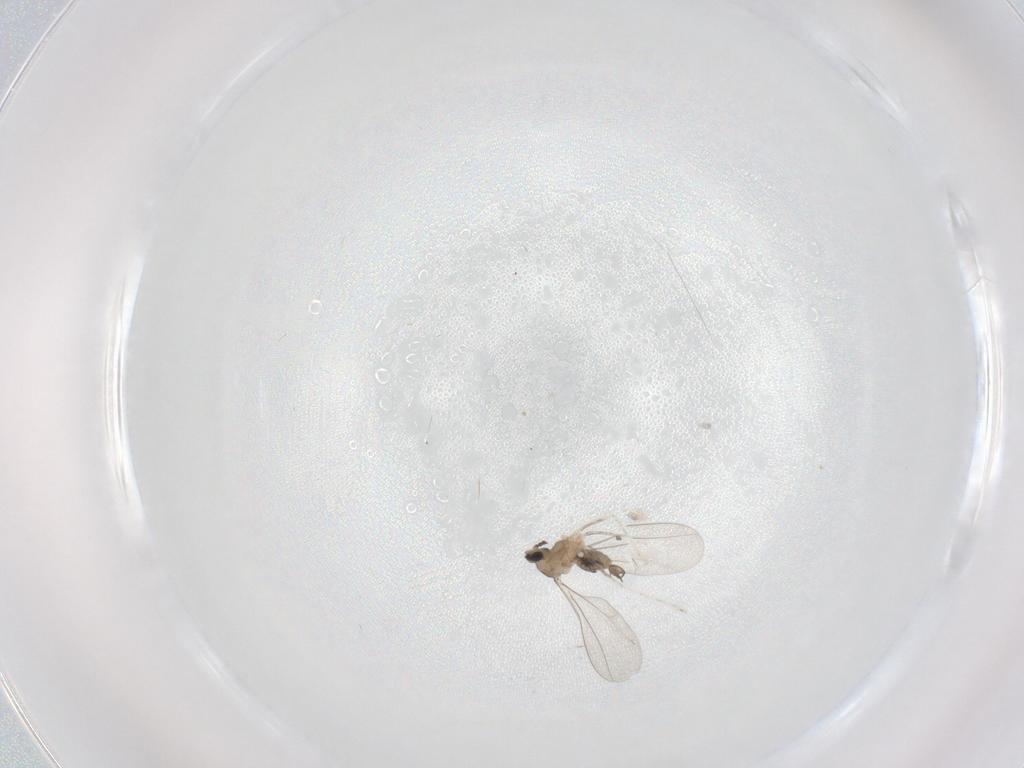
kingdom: Animalia
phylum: Arthropoda
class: Insecta
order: Diptera
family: Cecidomyiidae
